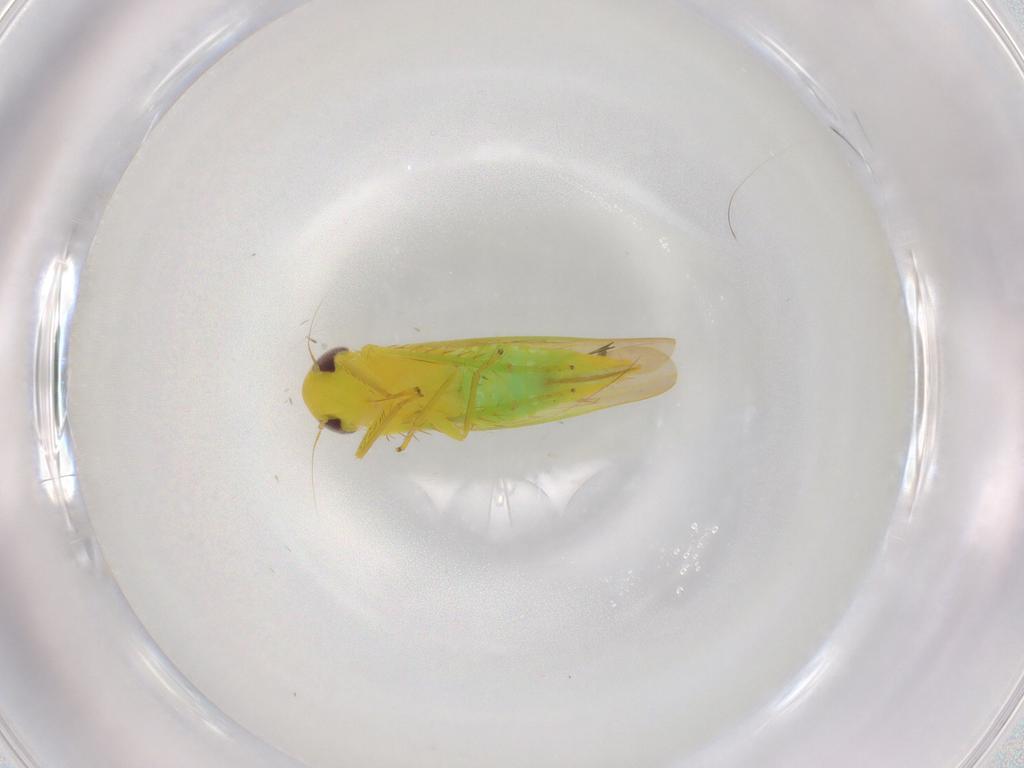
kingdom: Animalia
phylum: Arthropoda
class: Insecta
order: Hemiptera
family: Cicadellidae
